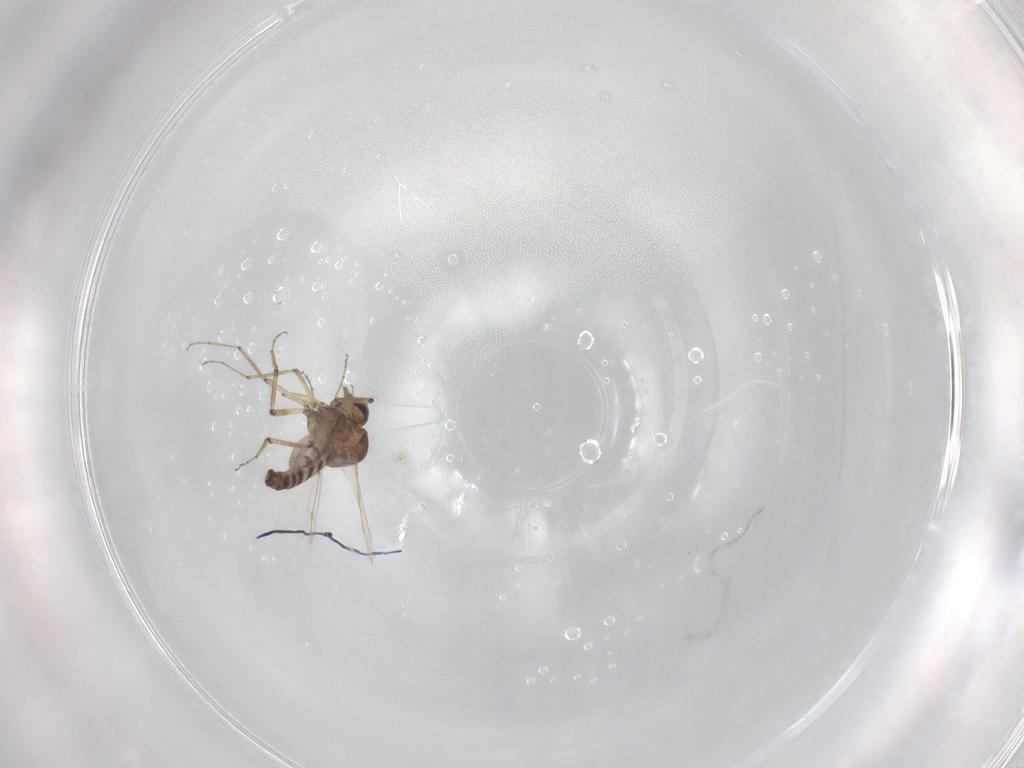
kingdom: Animalia
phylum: Arthropoda
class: Insecta
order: Diptera
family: Ceratopogonidae
